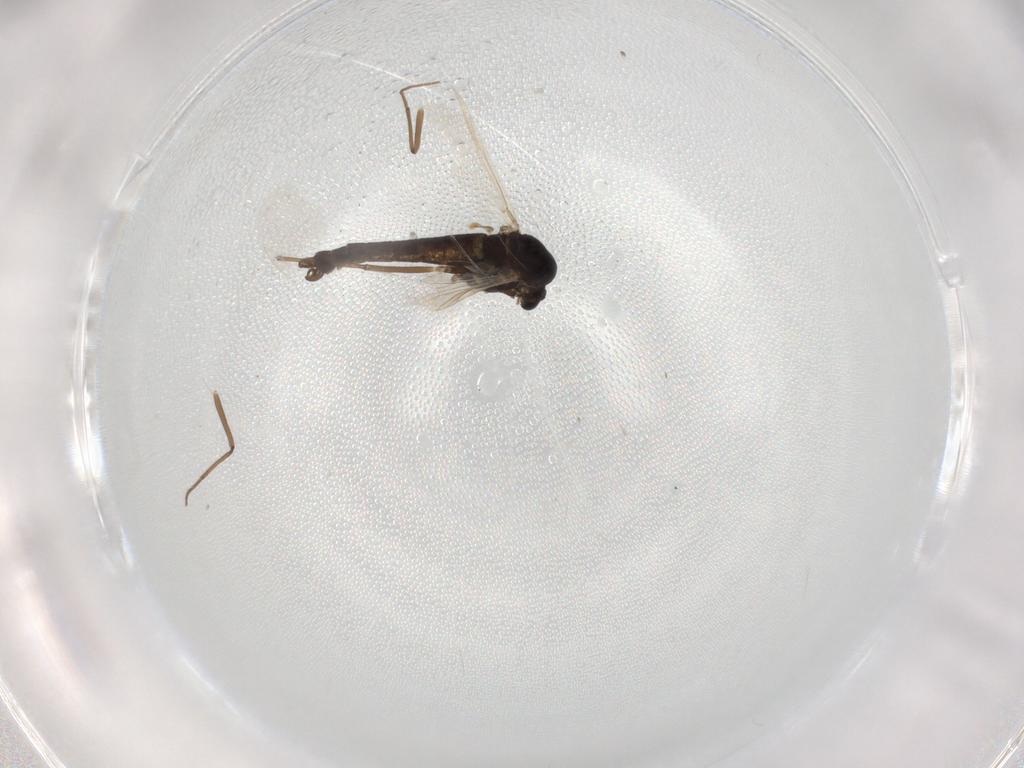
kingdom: Animalia
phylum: Arthropoda
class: Insecta
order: Diptera
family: Chironomidae
